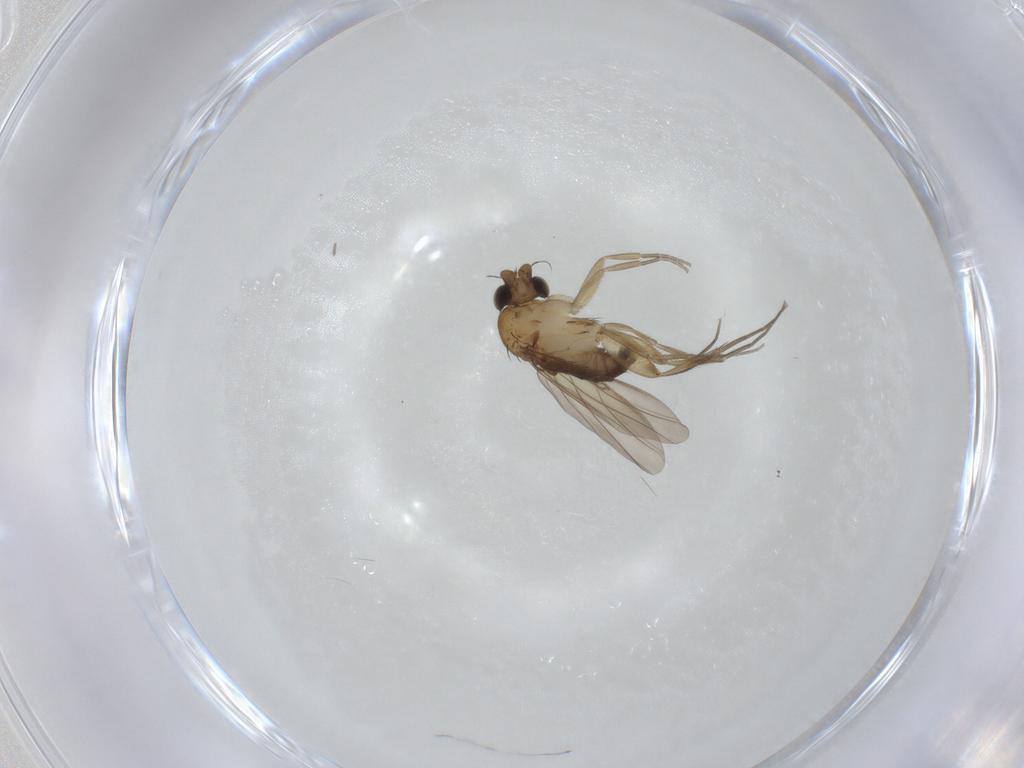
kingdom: Animalia
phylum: Arthropoda
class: Insecta
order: Diptera
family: Phoridae
